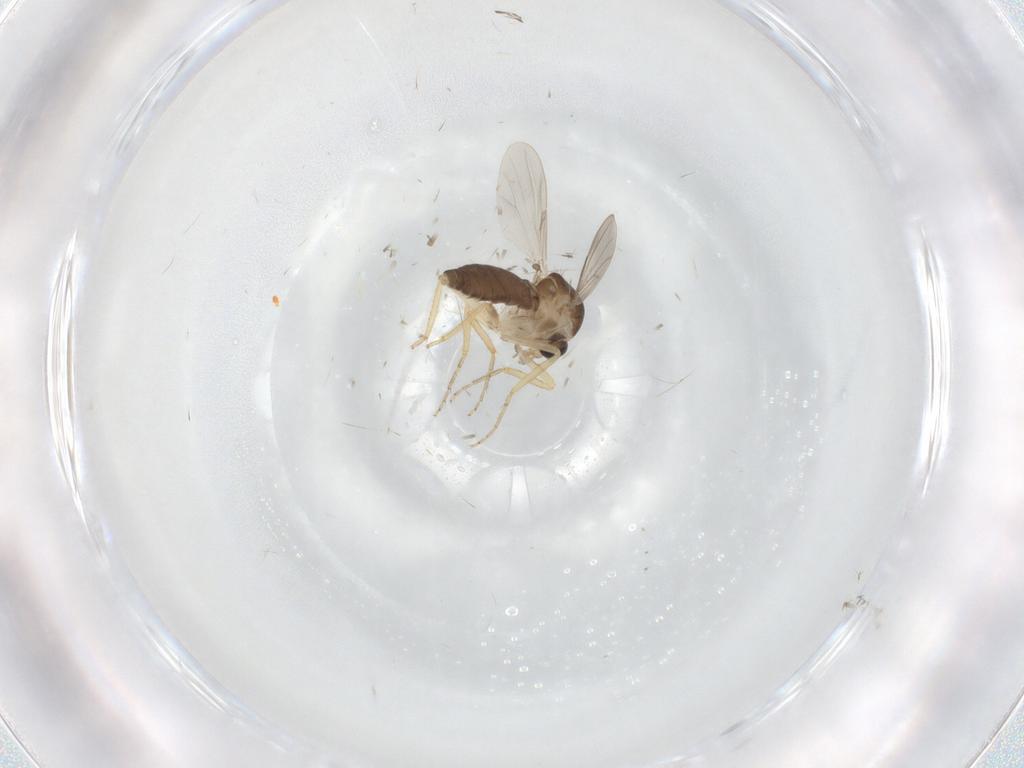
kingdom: Animalia
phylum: Arthropoda
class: Insecta
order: Diptera
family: Ceratopogonidae
